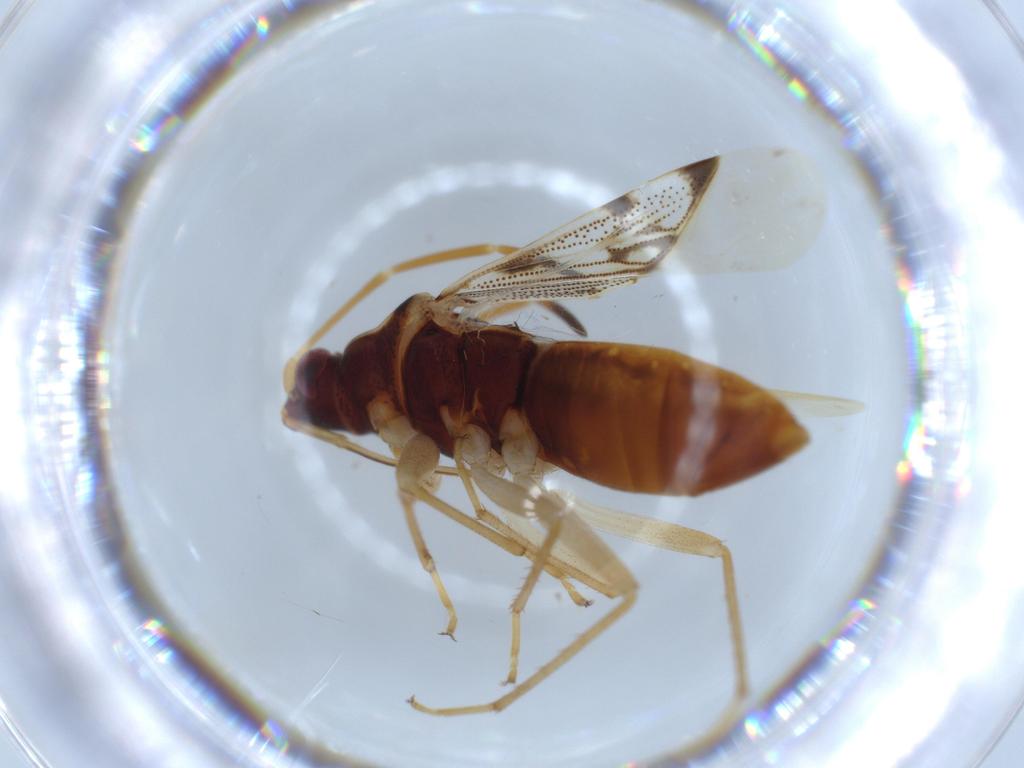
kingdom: Animalia
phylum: Arthropoda
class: Insecta
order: Hemiptera
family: Rhyparochromidae
